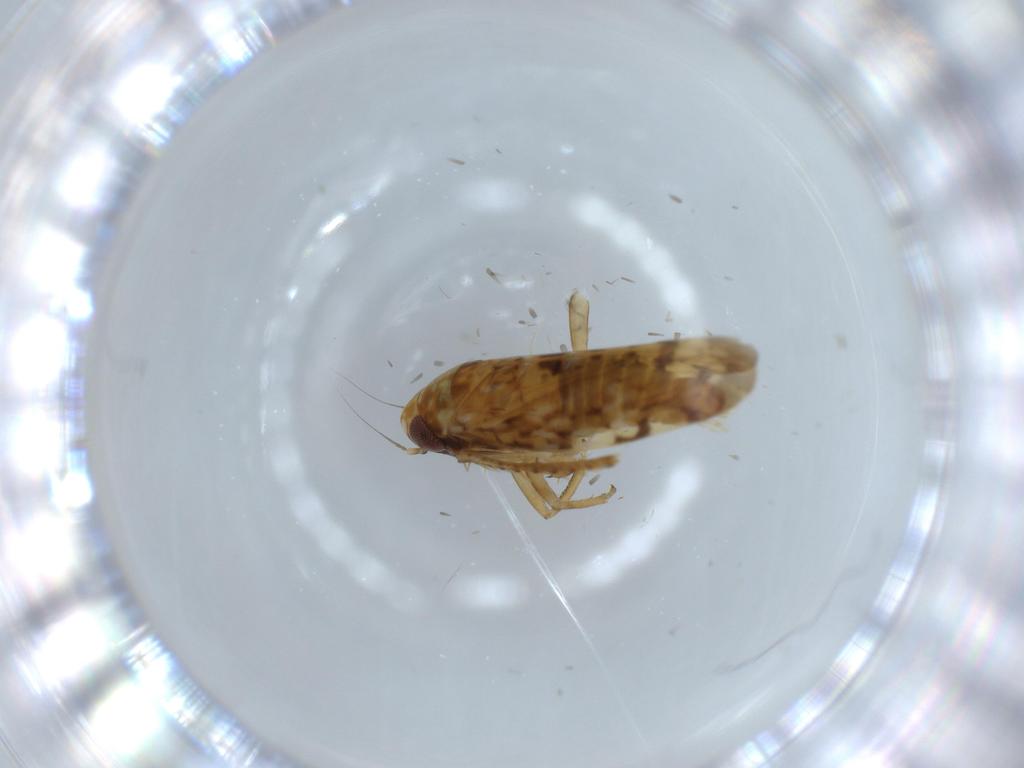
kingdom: Animalia
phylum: Arthropoda
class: Insecta
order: Hemiptera
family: Cicadellidae
